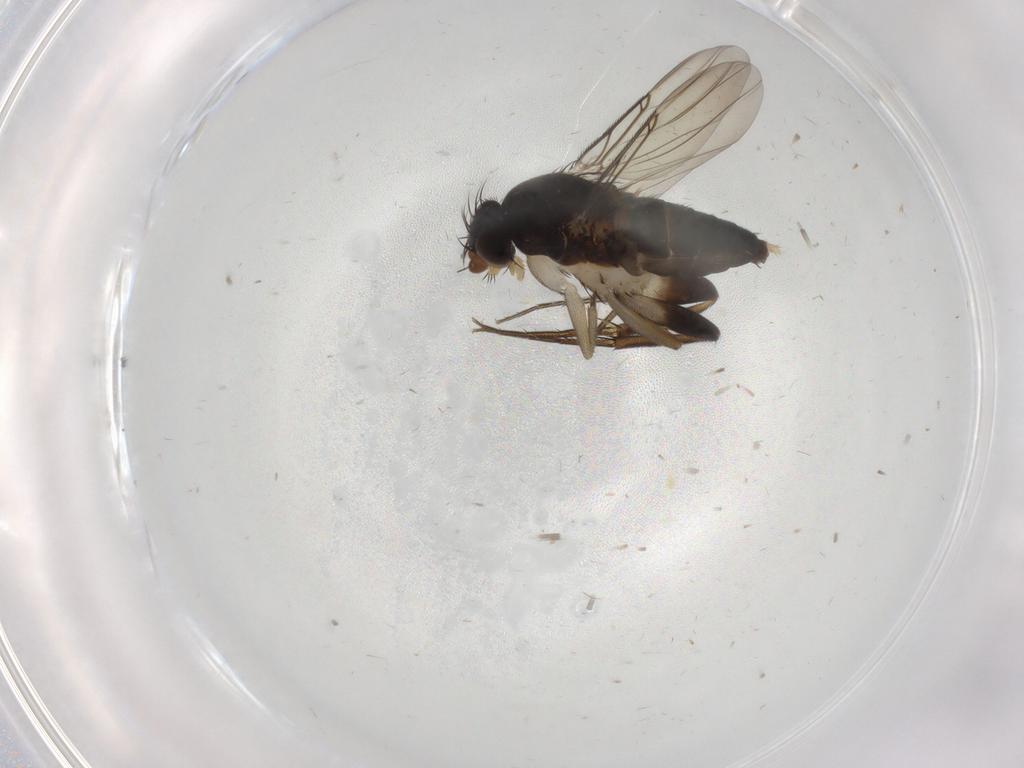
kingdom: Animalia
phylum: Arthropoda
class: Insecta
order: Diptera
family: Phoridae
